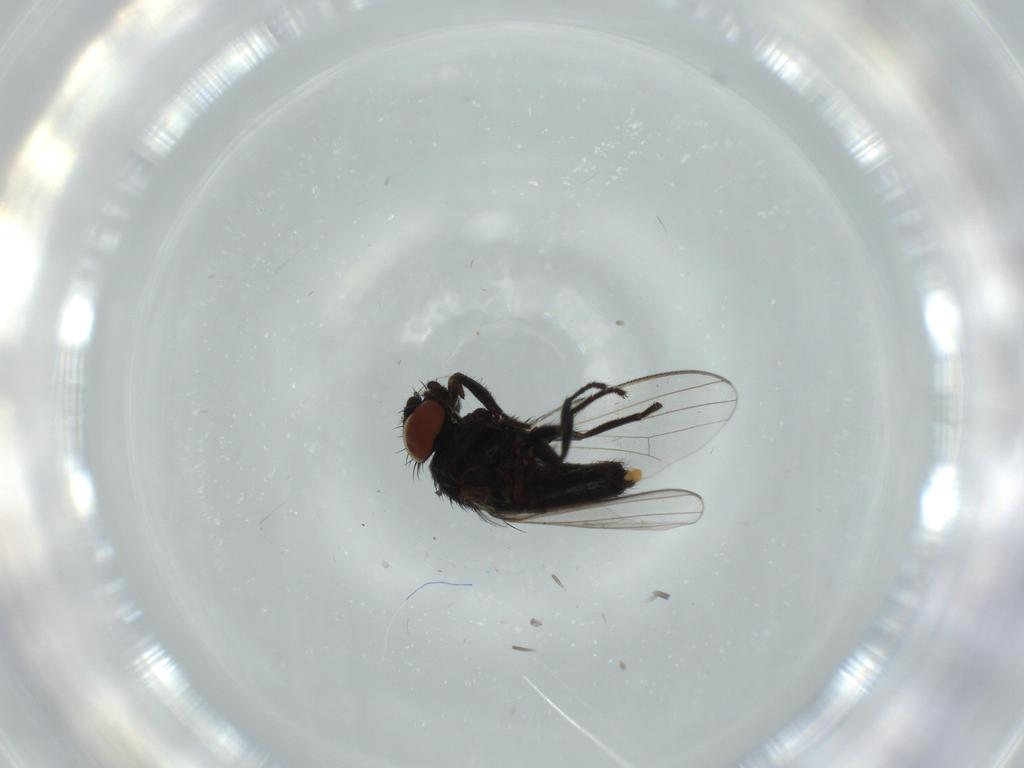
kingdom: Animalia
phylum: Arthropoda
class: Insecta
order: Diptera
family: Milichiidae
